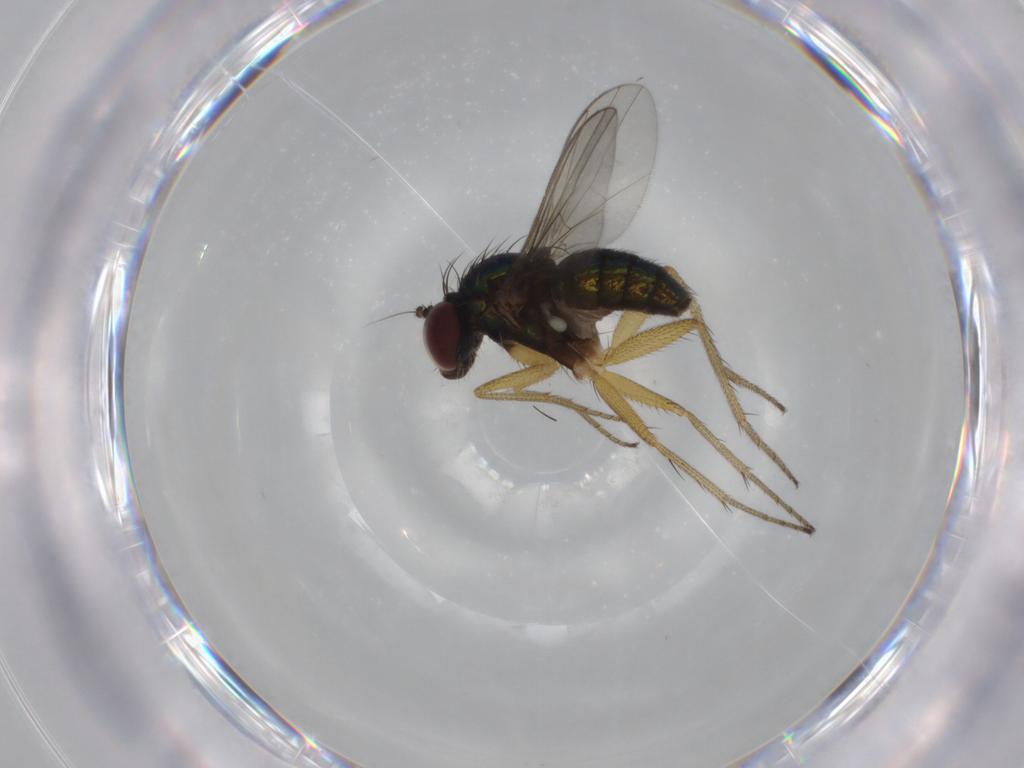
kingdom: Animalia
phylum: Arthropoda
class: Insecta
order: Diptera
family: Dolichopodidae
